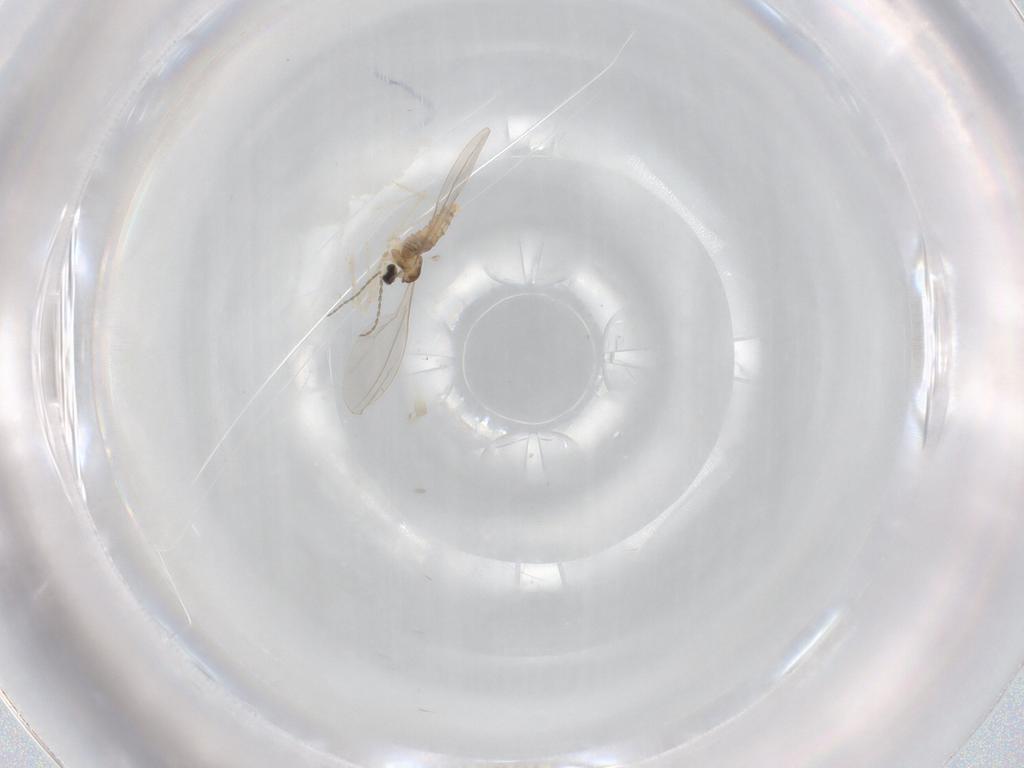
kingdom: Animalia
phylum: Arthropoda
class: Insecta
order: Diptera
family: Cecidomyiidae
